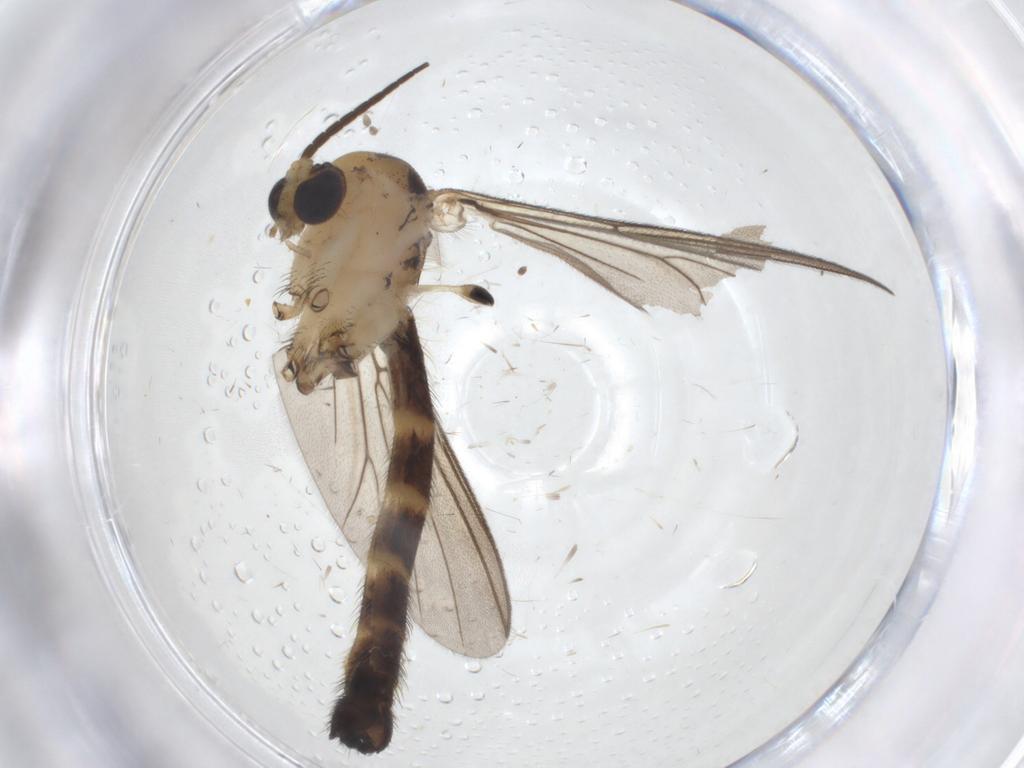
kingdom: Animalia
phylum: Arthropoda
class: Insecta
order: Diptera
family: Mycetophilidae
